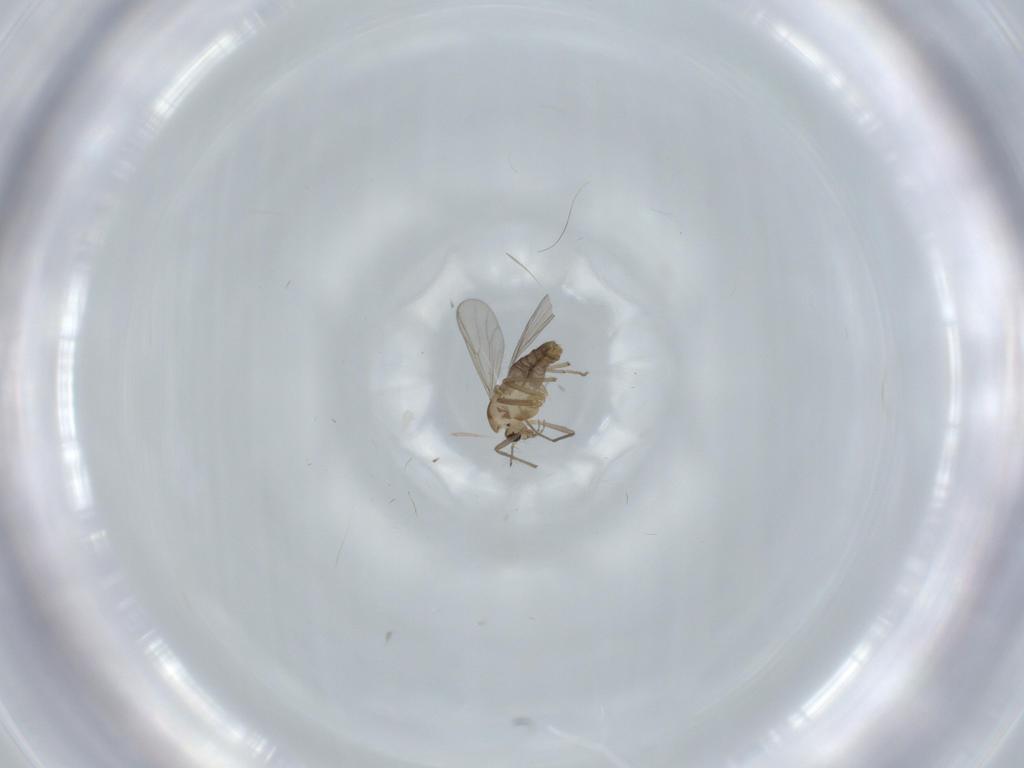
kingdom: Animalia
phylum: Arthropoda
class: Insecta
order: Diptera
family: Chironomidae
